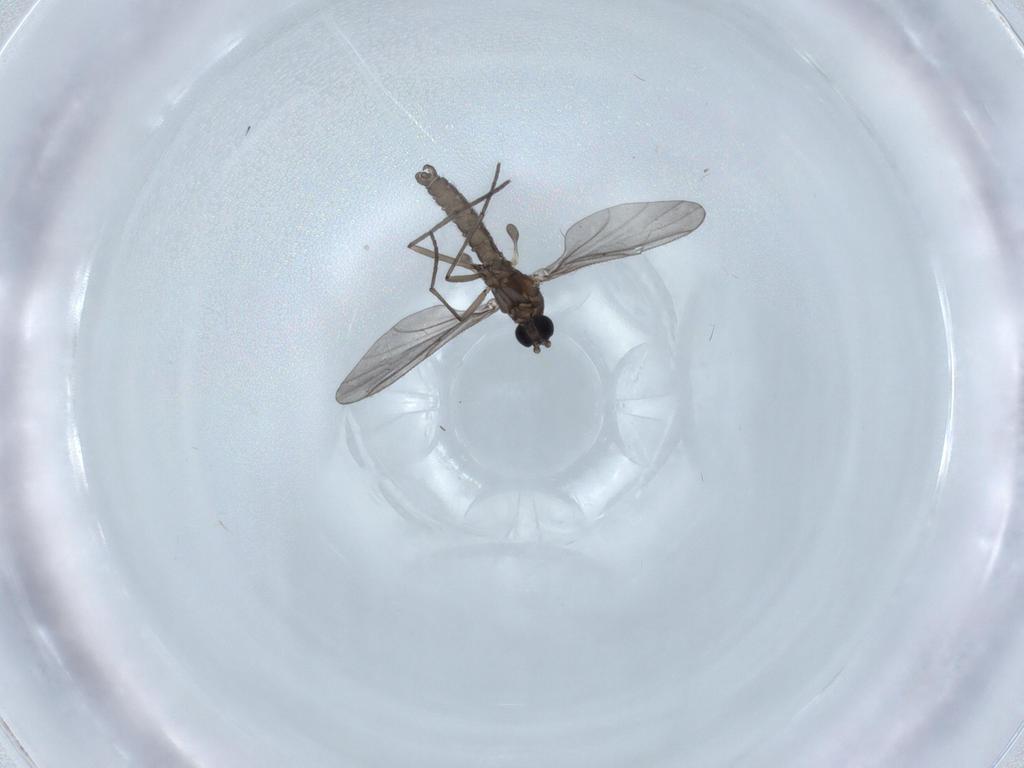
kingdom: Animalia
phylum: Arthropoda
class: Insecta
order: Diptera
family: Sciaridae
